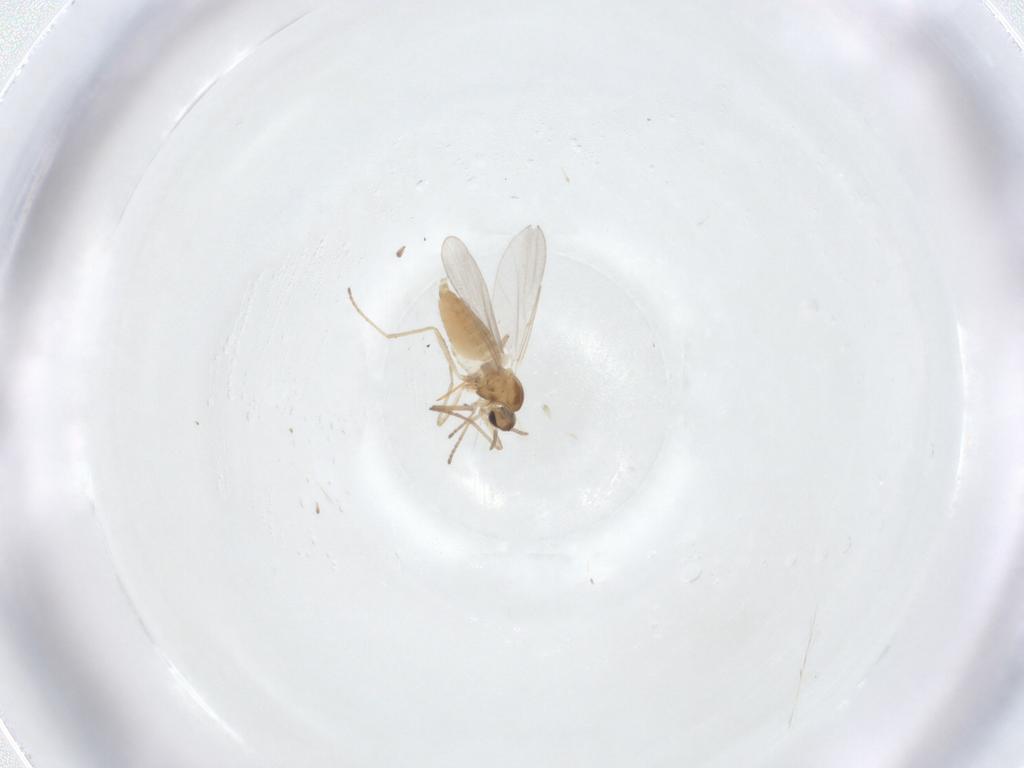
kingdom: Animalia
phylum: Arthropoda
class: Insecta
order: Diptera
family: Cecidomyiidae
